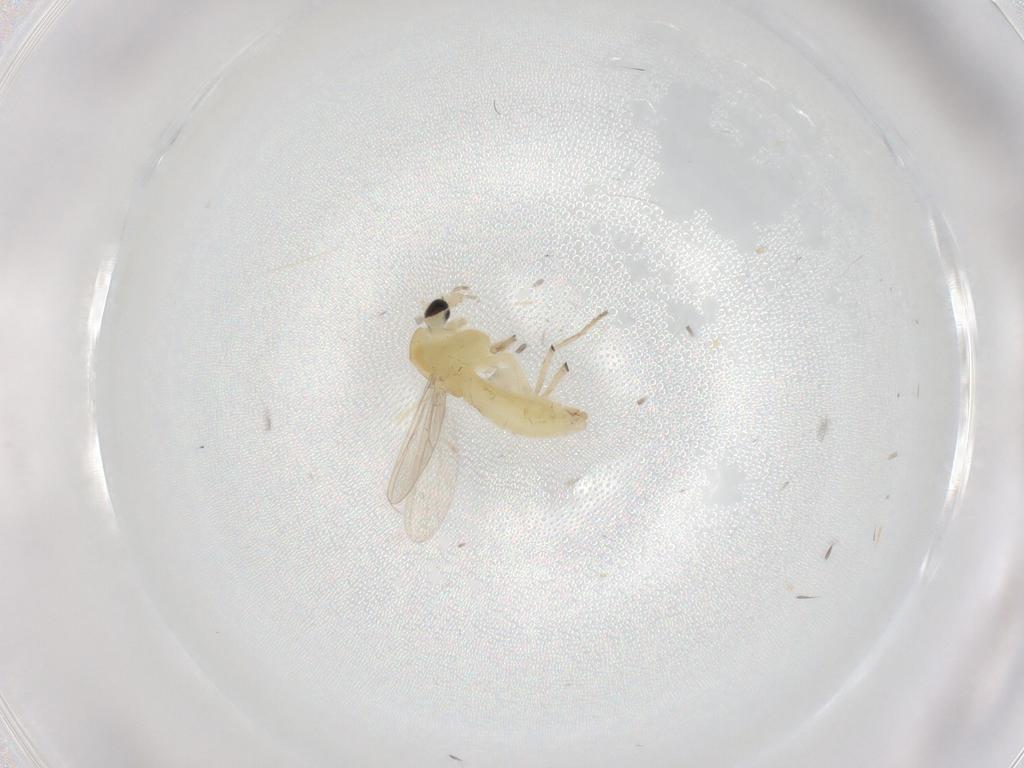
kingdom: Animalia
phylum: Arthropoda
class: Insecta
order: Diptera
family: Chironomidae
